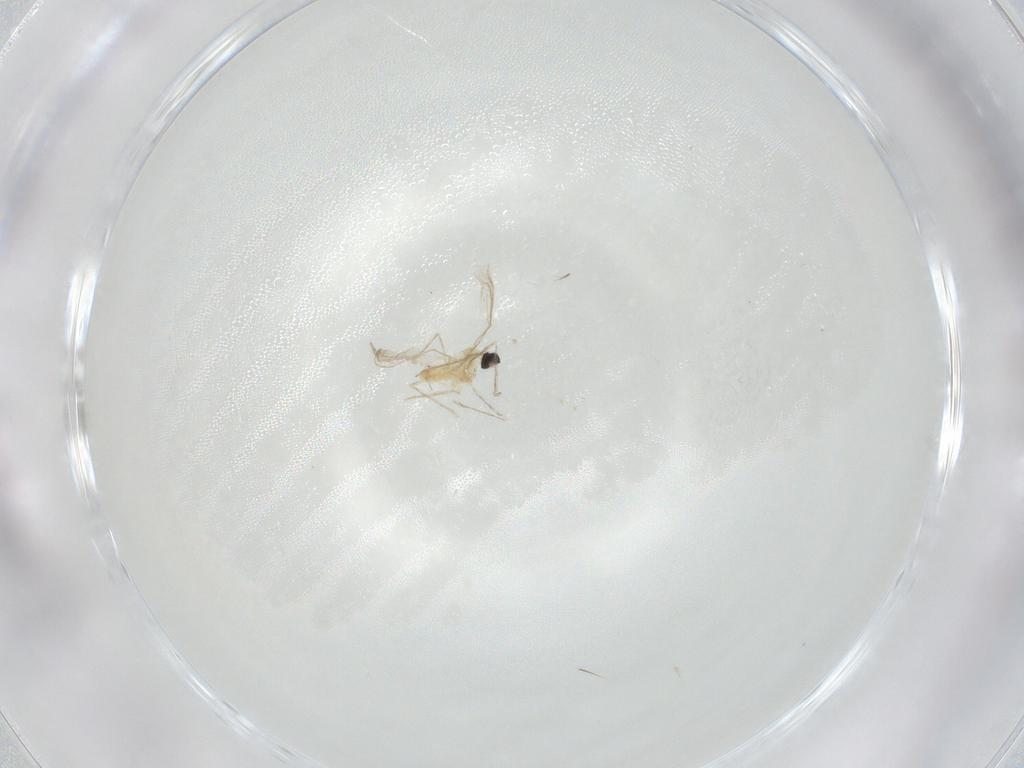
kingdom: Animalia
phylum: Arthropoda
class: Insecta
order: Diptera
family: Cecidomyiidae
